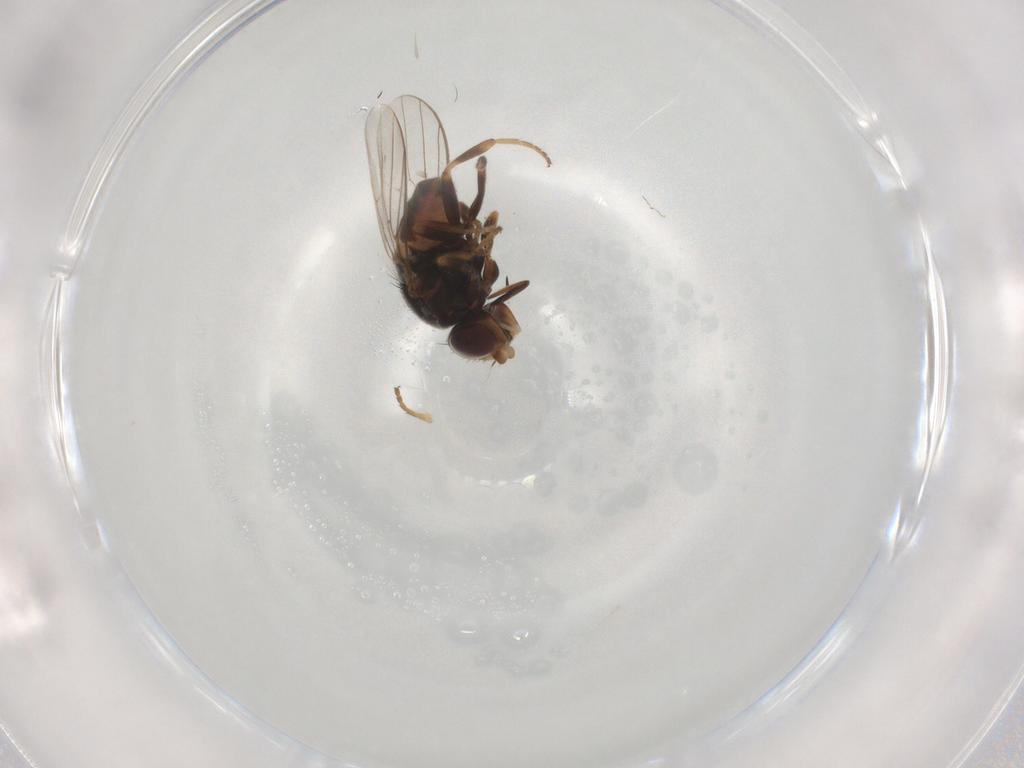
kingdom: Animalia
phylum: Arthropoda
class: Insecta
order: Diptera
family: Chloropidae
